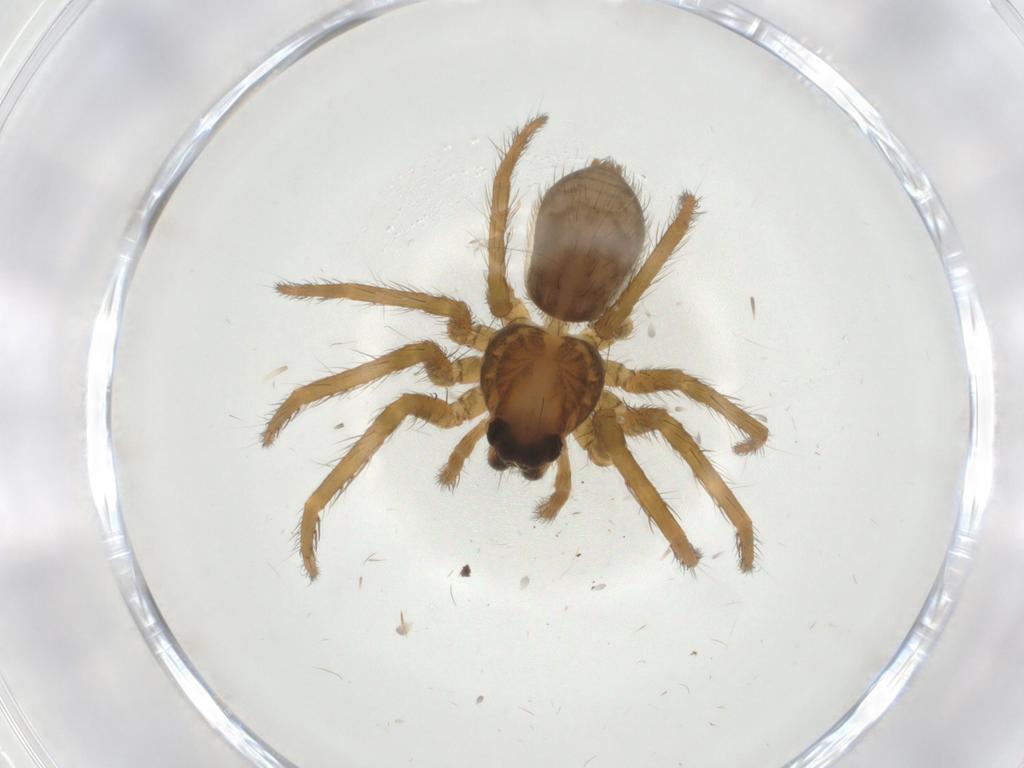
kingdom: Animalia
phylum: Arthropoda
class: Arachnida
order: Araneae
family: Trechaleidae
